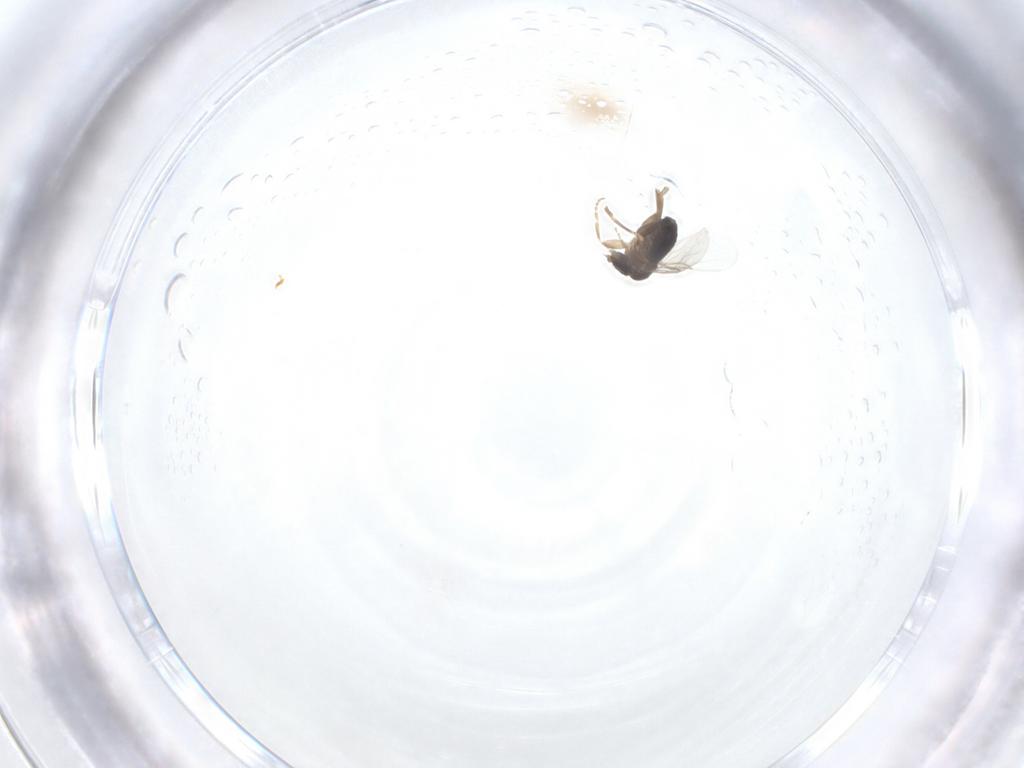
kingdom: Animalia
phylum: Arthropoda
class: Insecta
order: Diptera
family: Phoridae
